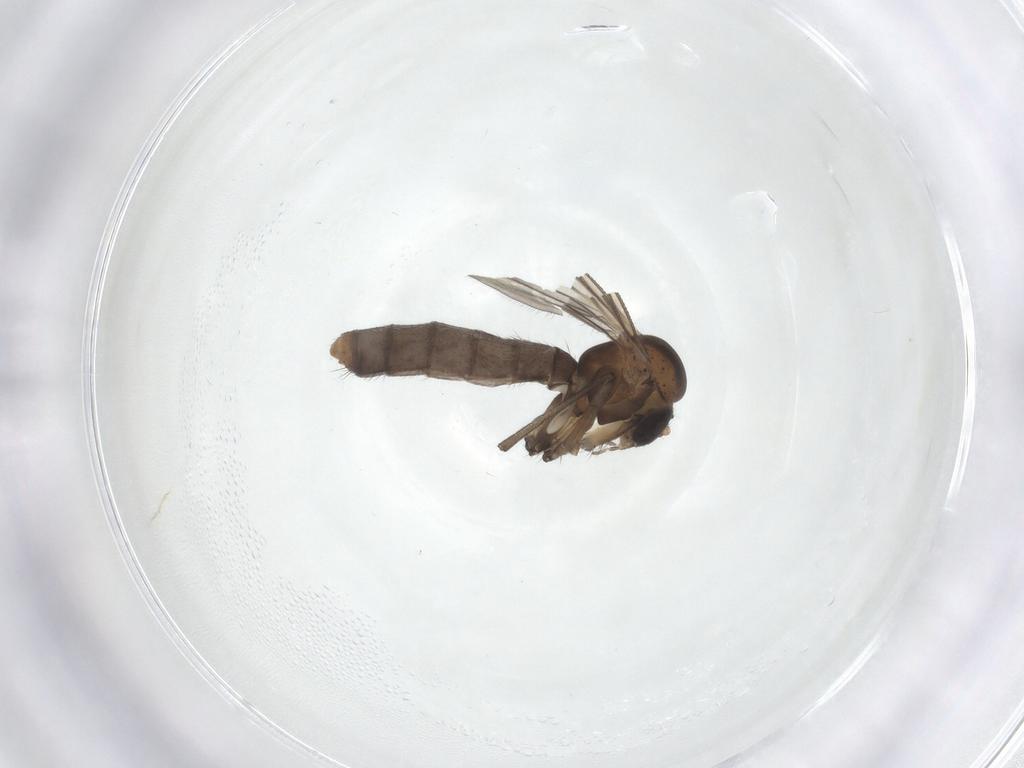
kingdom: Animalia
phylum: Arthropoda
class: Insecta
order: Diptera
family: Mycetophilidae
